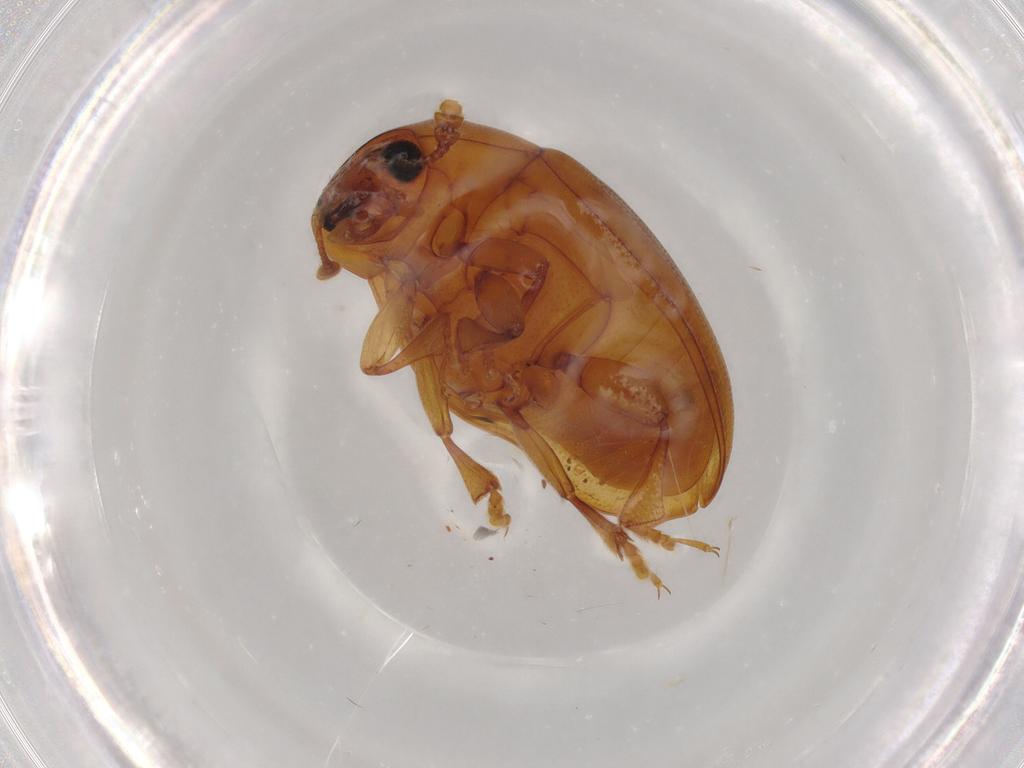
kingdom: Animalia
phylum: Arthropoda
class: Insecta
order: Coleoptera
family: Erotylidae
